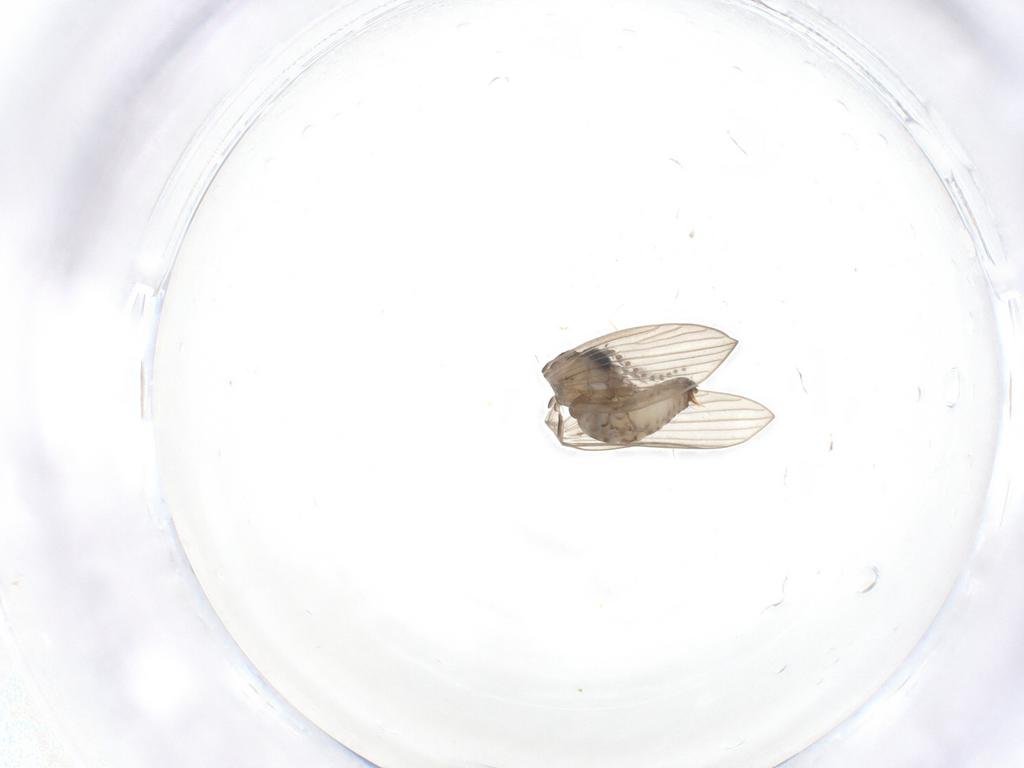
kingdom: Animalia
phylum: Arthropoda
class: Insecta
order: Diptera
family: Psychodidae
